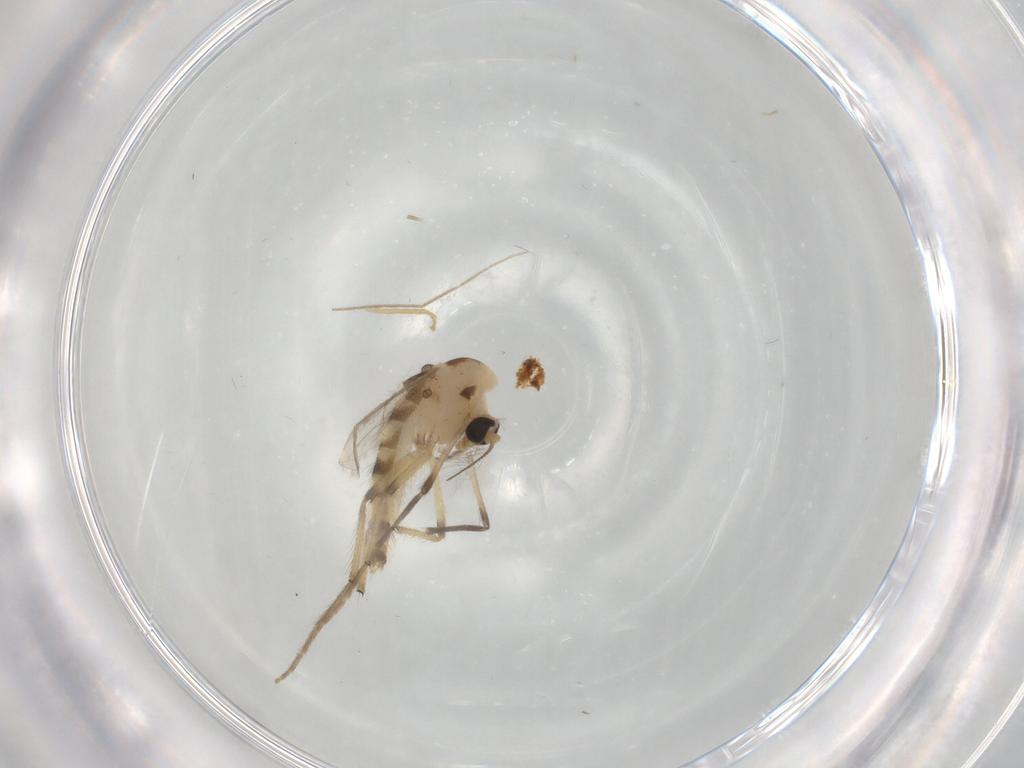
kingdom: Animalia
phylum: Arthropoda
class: Insecta
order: Diptera
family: Chironomidae
